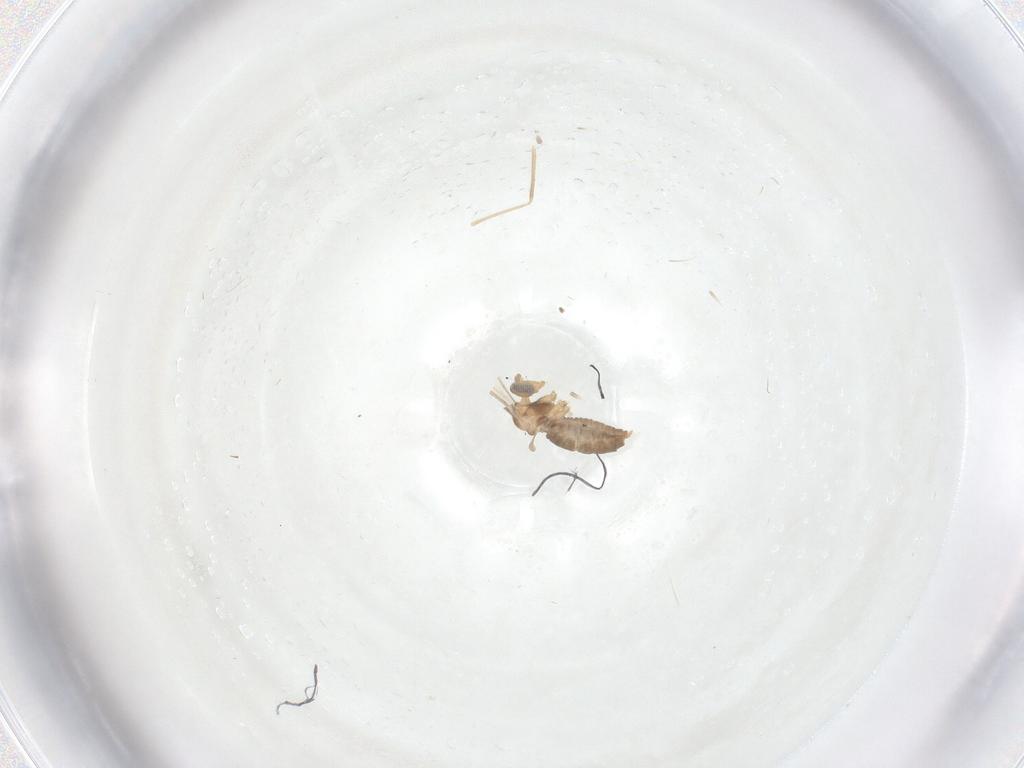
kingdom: Animalia
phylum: Arthropoda
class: Insecta
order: Diptera
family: Cecidomyiidae
